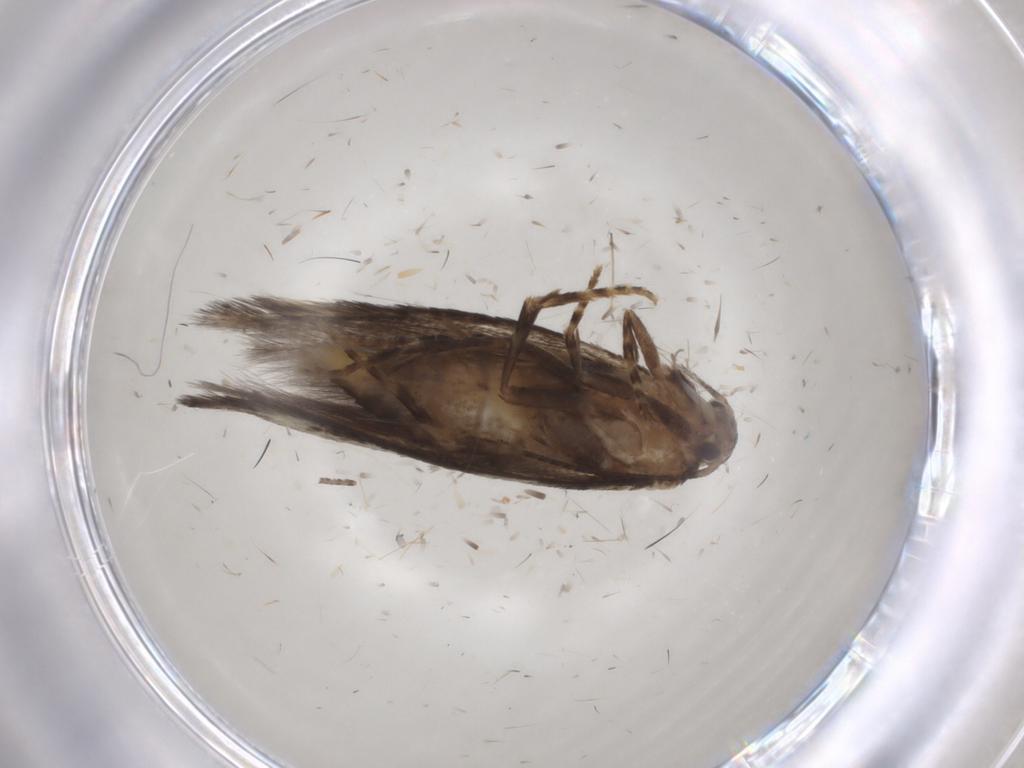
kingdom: Animalia
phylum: Arthropoda
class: Insecta
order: Lepidoptera
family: Elachistidae
